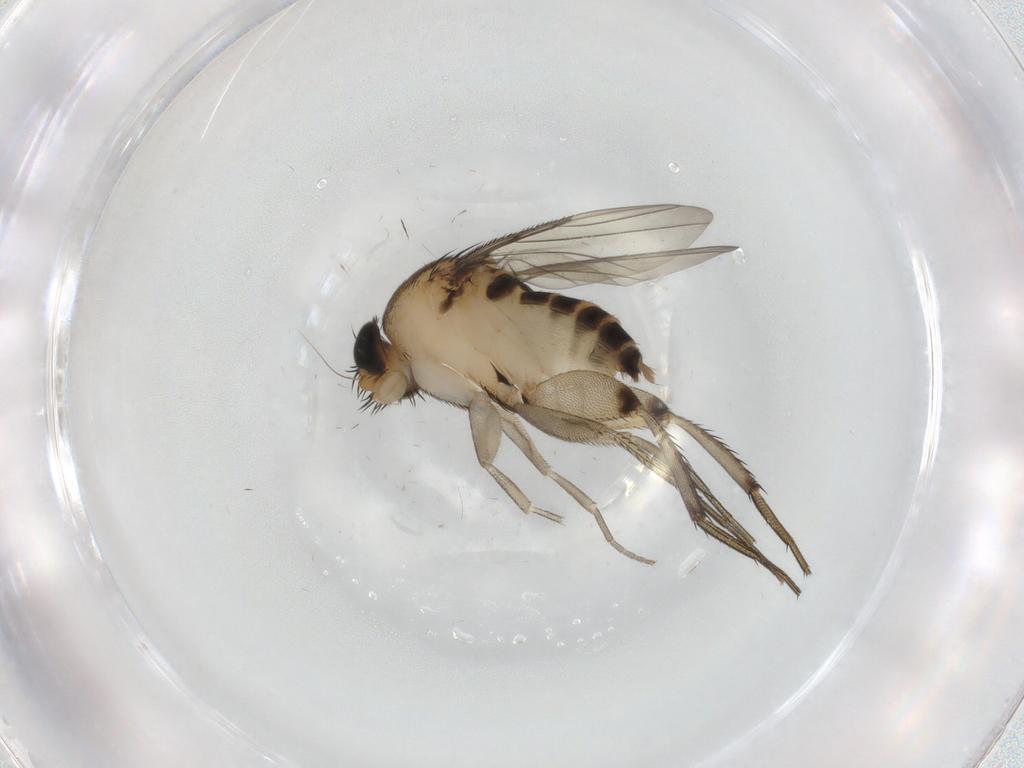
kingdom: Animalia
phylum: Arthropoda
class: Insecta
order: Diptera
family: Phoridae
